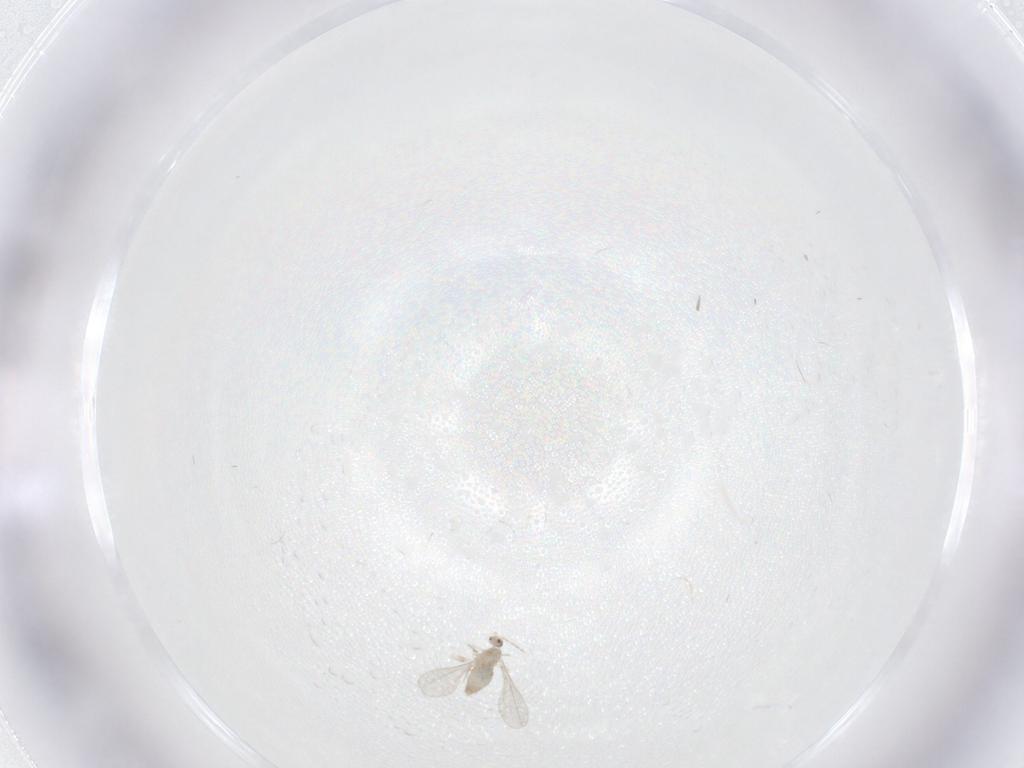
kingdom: Animalia
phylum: Arthropoda
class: Insecta
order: Diptera
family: Cecidomyiidae
